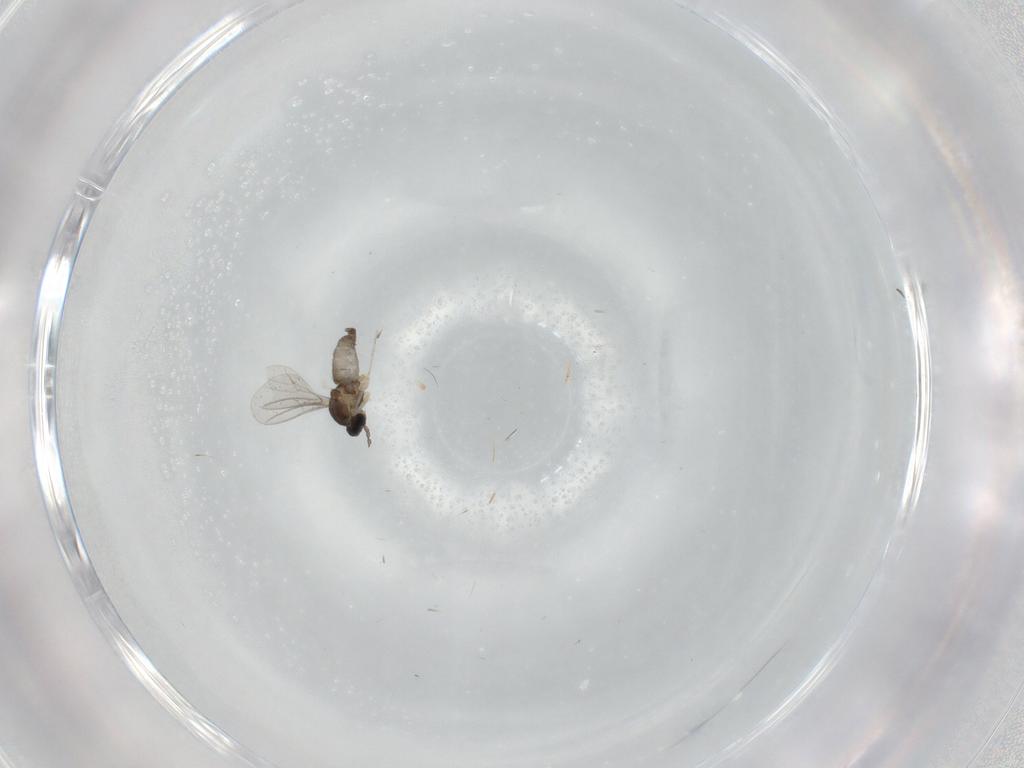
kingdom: Animalia
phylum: Arthropoda
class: Insecta
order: Diptera
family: Cecidomyiidae
